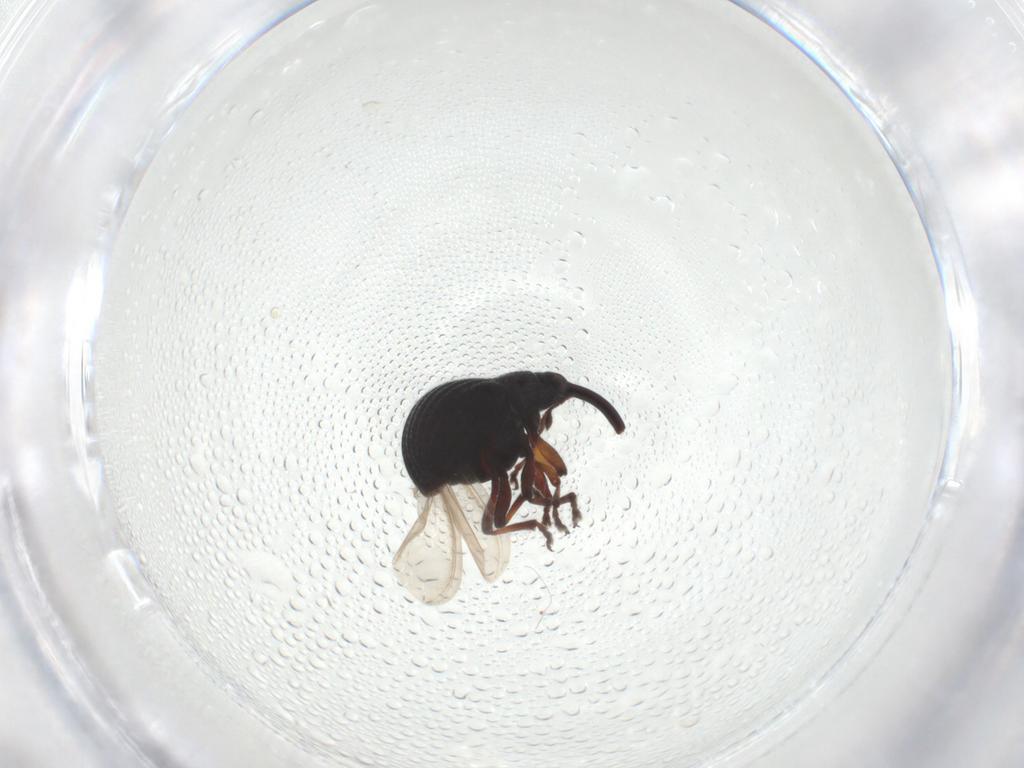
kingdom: Animalia
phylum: Arthropoda
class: Insecta
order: Coleoptera
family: Brentidae
